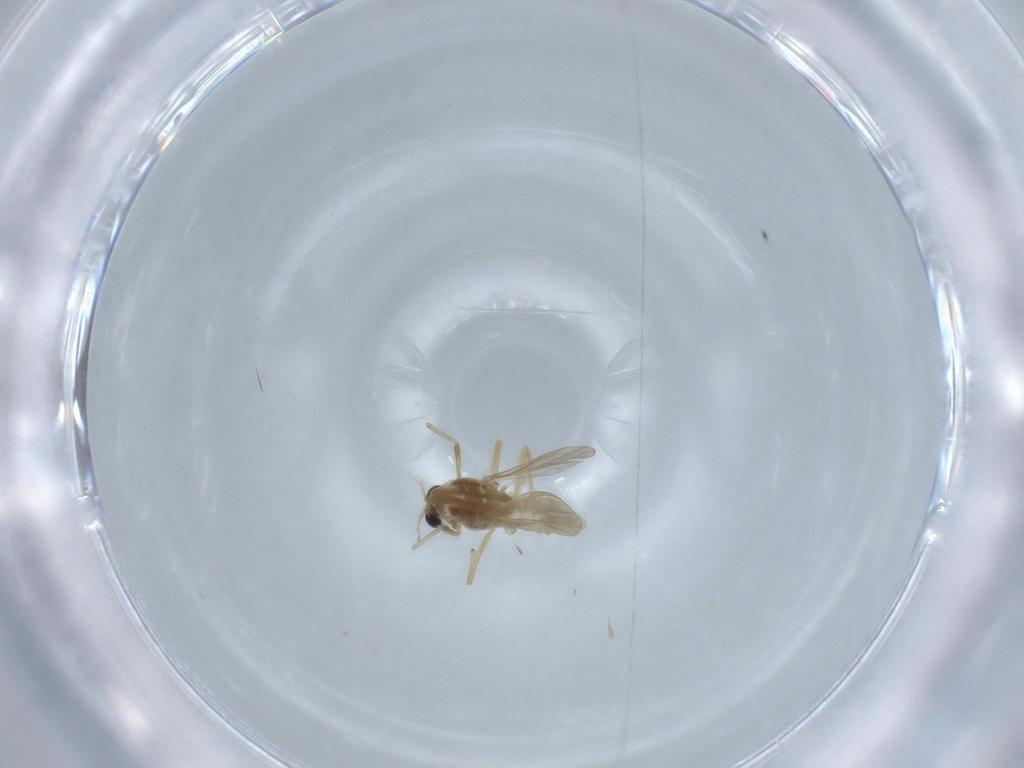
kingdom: Animalia
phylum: Arthropoda
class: Insecta
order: Diptera
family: Chironomidae
